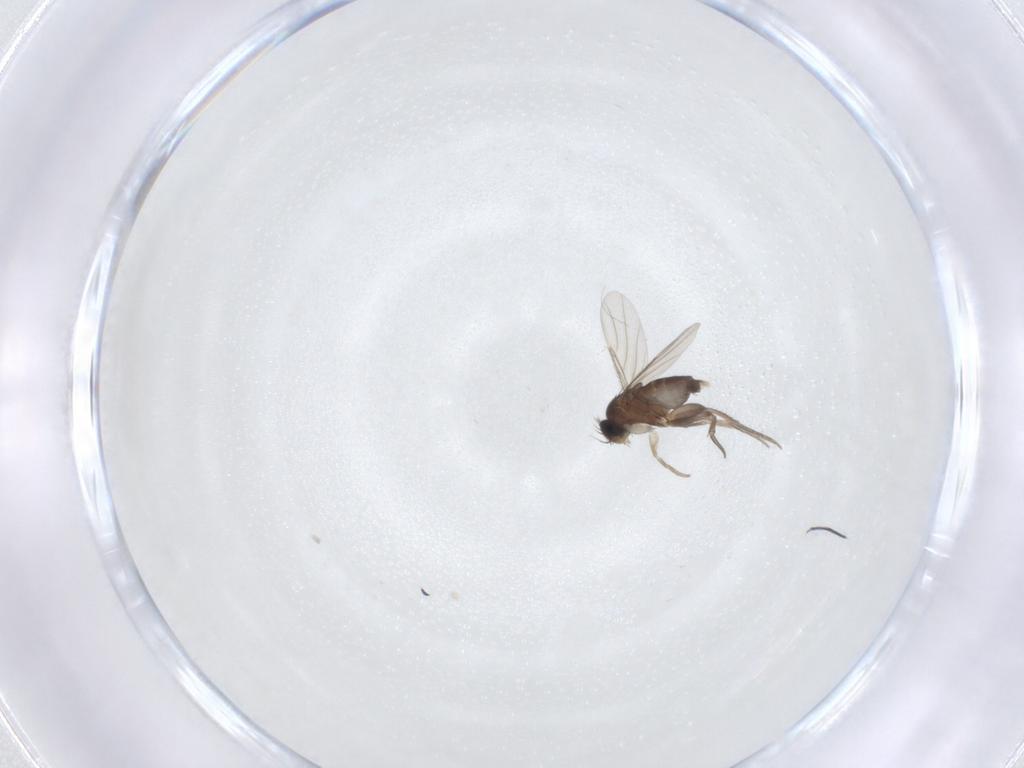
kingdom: Animalia
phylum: Arthropoda
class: Insecta
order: Diptera
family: Phoridae
